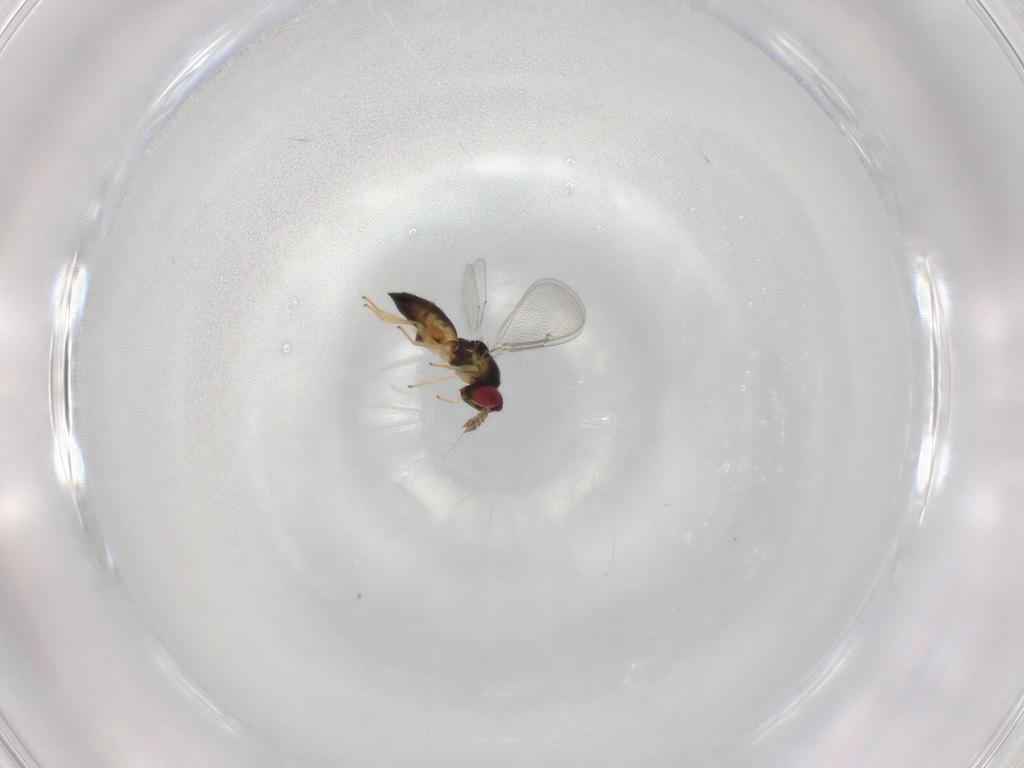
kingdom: Animalia
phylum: Arthropoda
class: Insecta
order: Hymenoptera
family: Eulophidae
